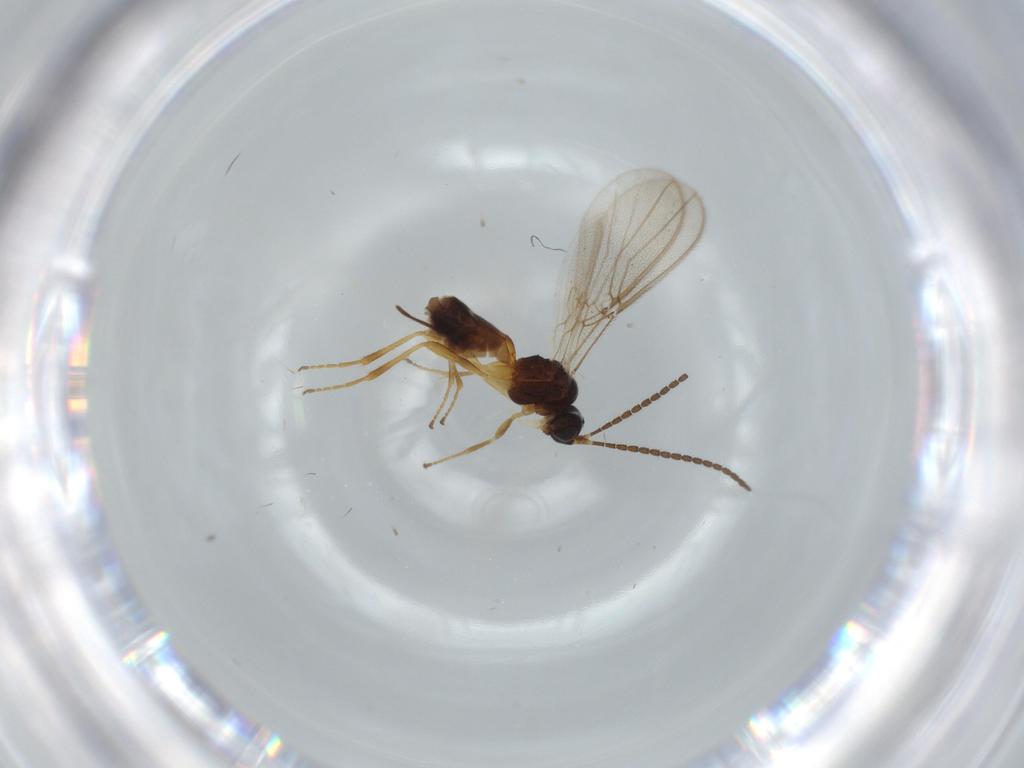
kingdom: Animalia
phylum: Arthropoda
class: Insecta
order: Hymenoptera
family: Braconidae
